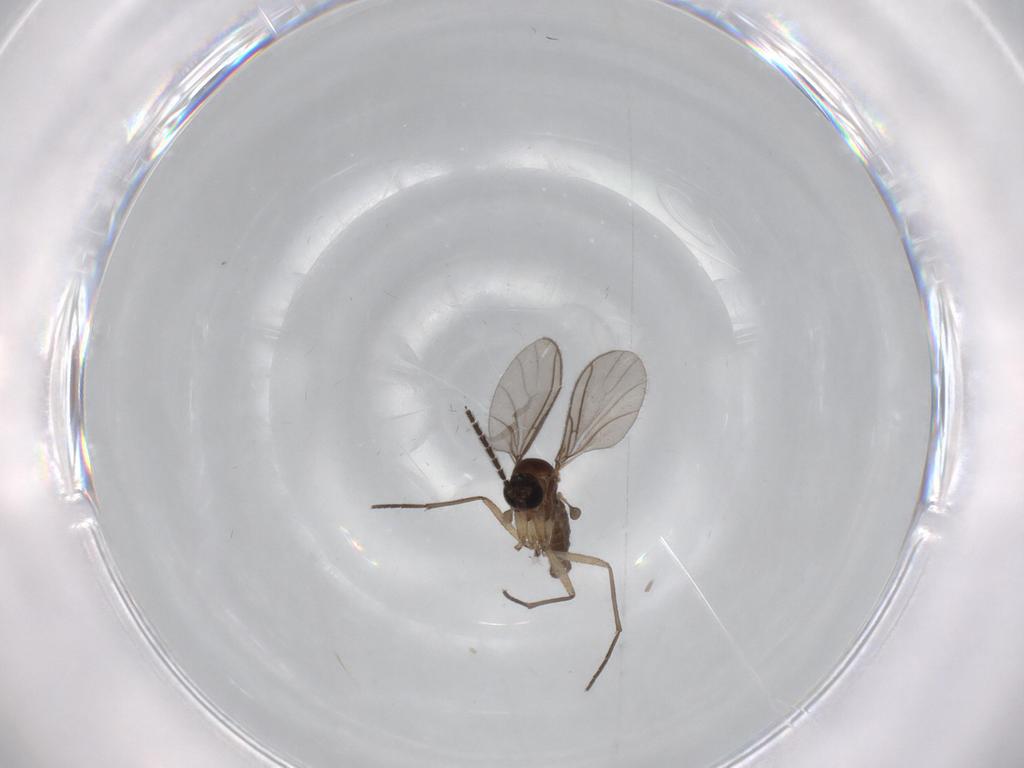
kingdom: Animalia
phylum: Arthropoda
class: Insecta
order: Diptera
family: Sciaridae
